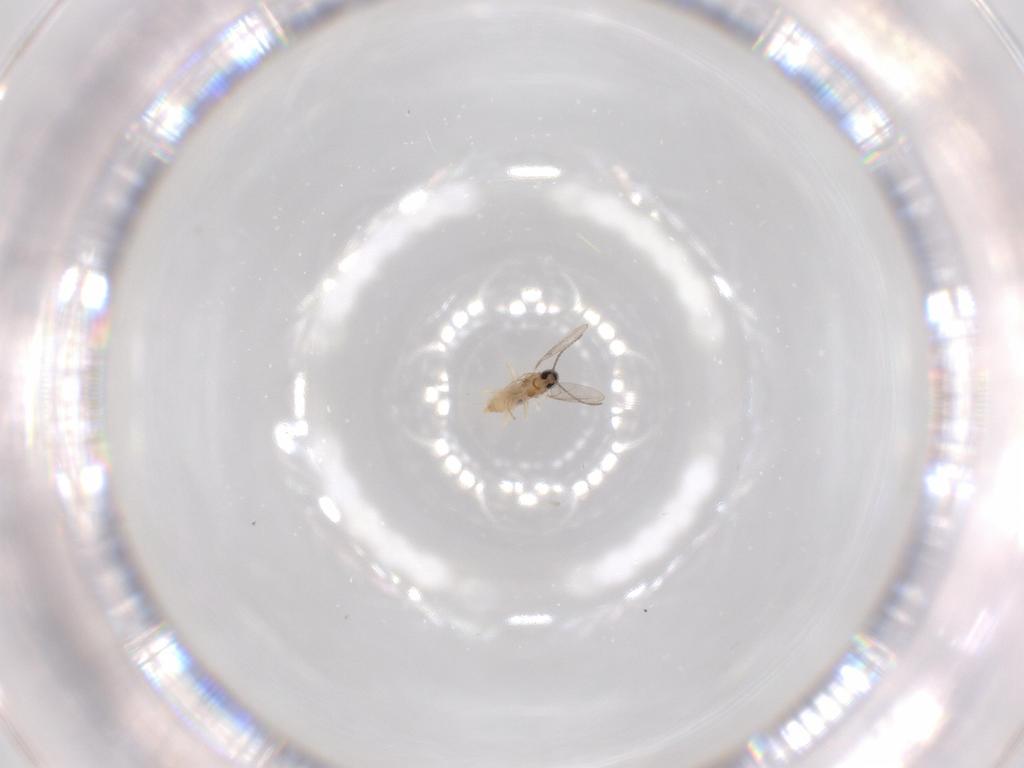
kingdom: Animalia
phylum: Arthropoda
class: Insecta
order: Diptera
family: Cecidomyiidae
